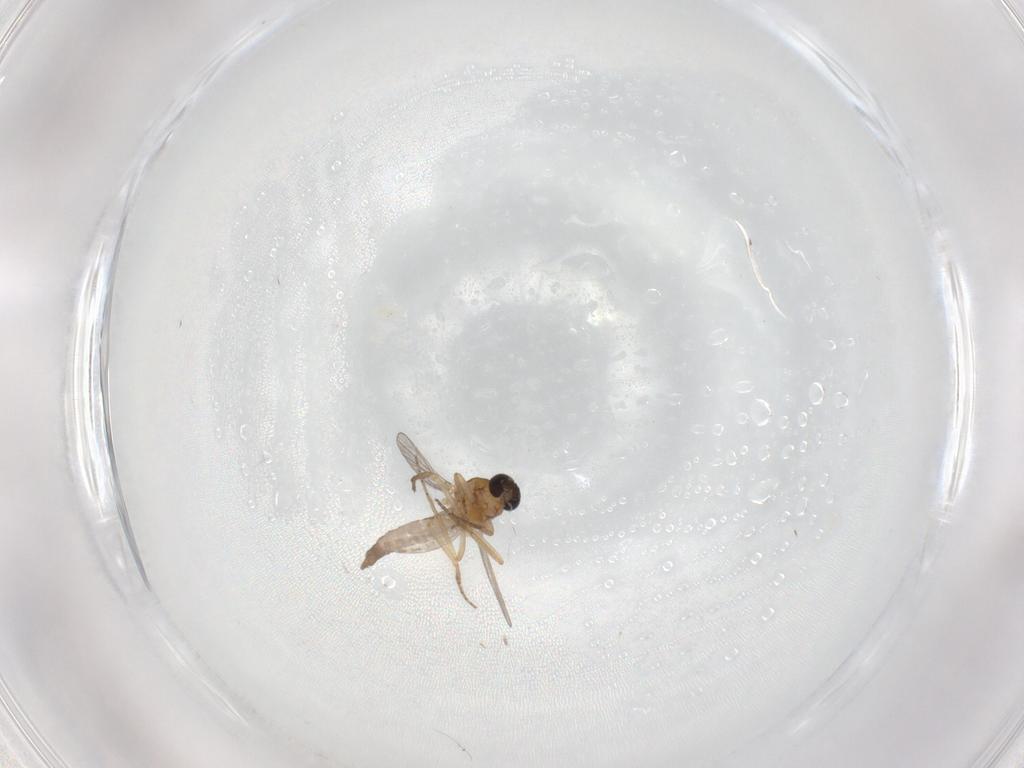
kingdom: Animalia
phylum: Arthropoda
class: Insecta
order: Diptera
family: Ceratopogonidae
